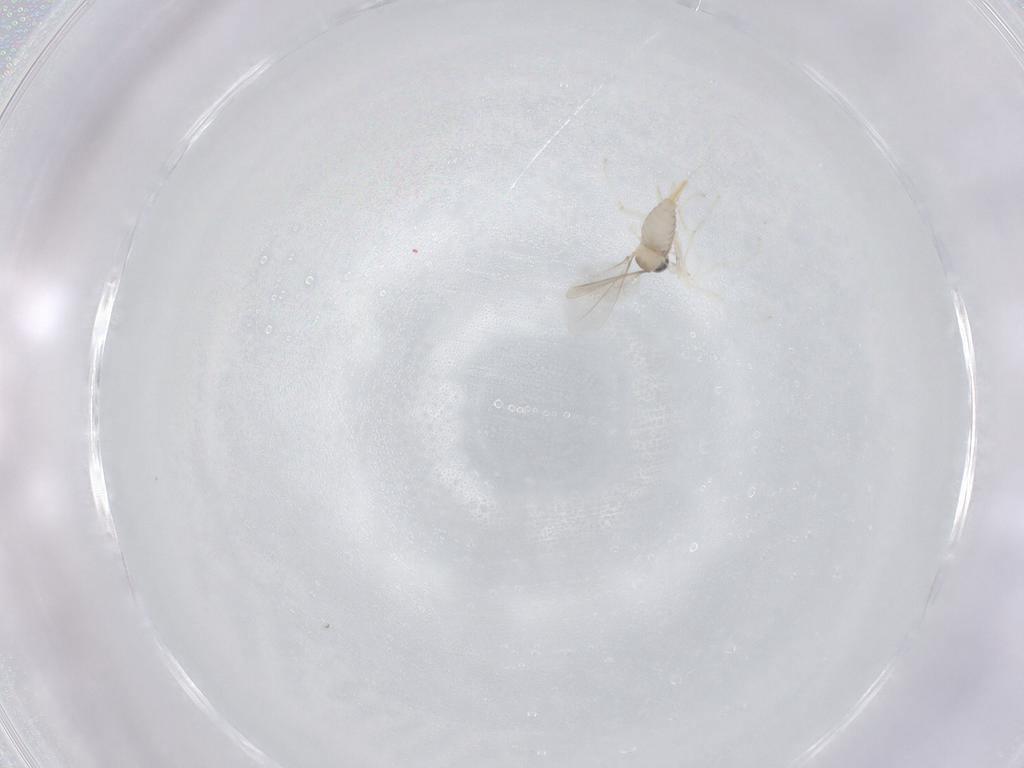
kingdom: Animalia
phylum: Arthropoda
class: Insecta
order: Diptera
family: Cecidomyiidae
